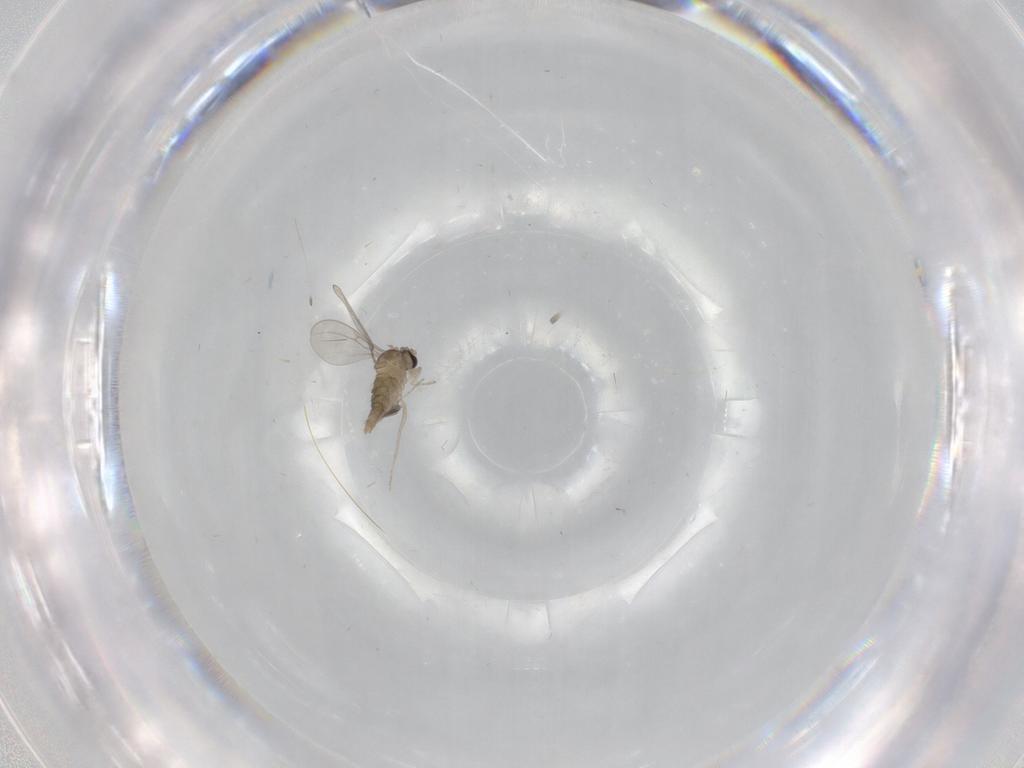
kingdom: Animalia
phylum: Arthropoda
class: Insecta
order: Diptera
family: Cecidomyiidae
